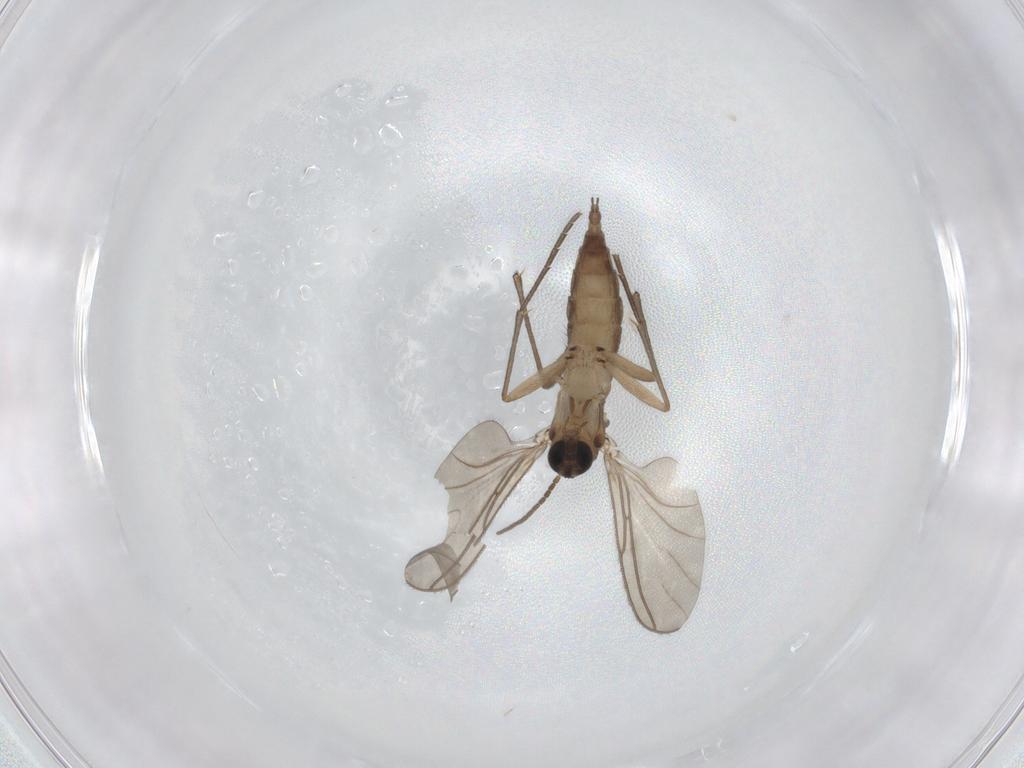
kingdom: Animalia
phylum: Arthropoda
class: Insecta
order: Diptera
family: Sciaridae
